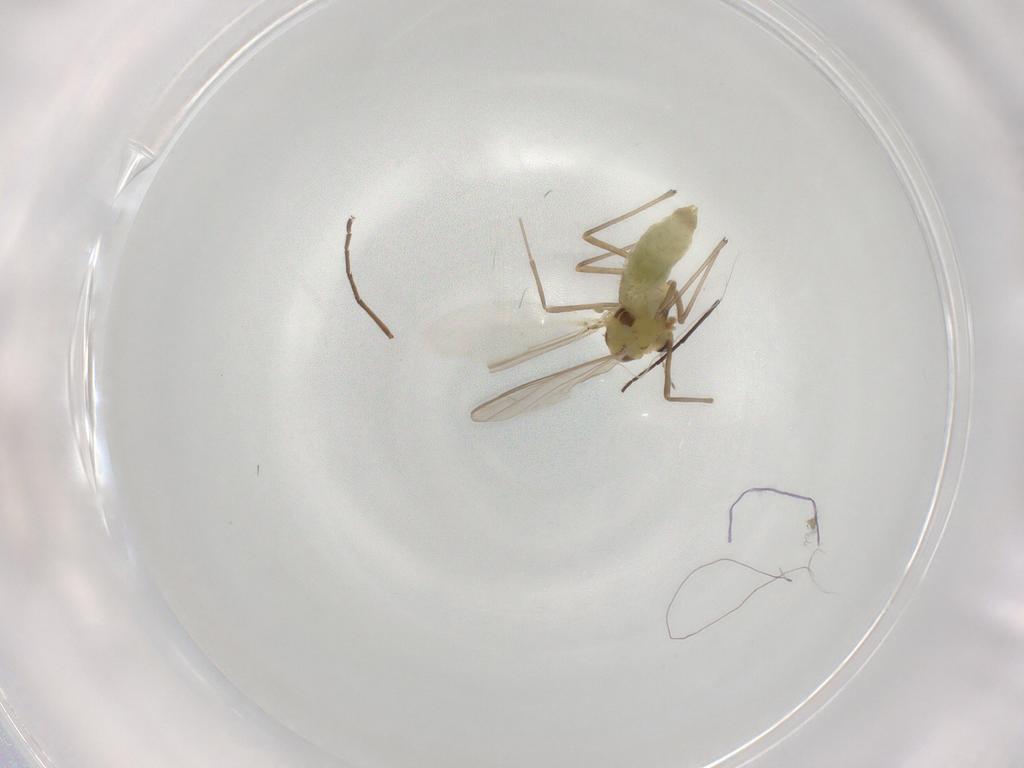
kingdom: Animalia
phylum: Arthropoda
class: Insecta
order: Diptera
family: Chironomidae
